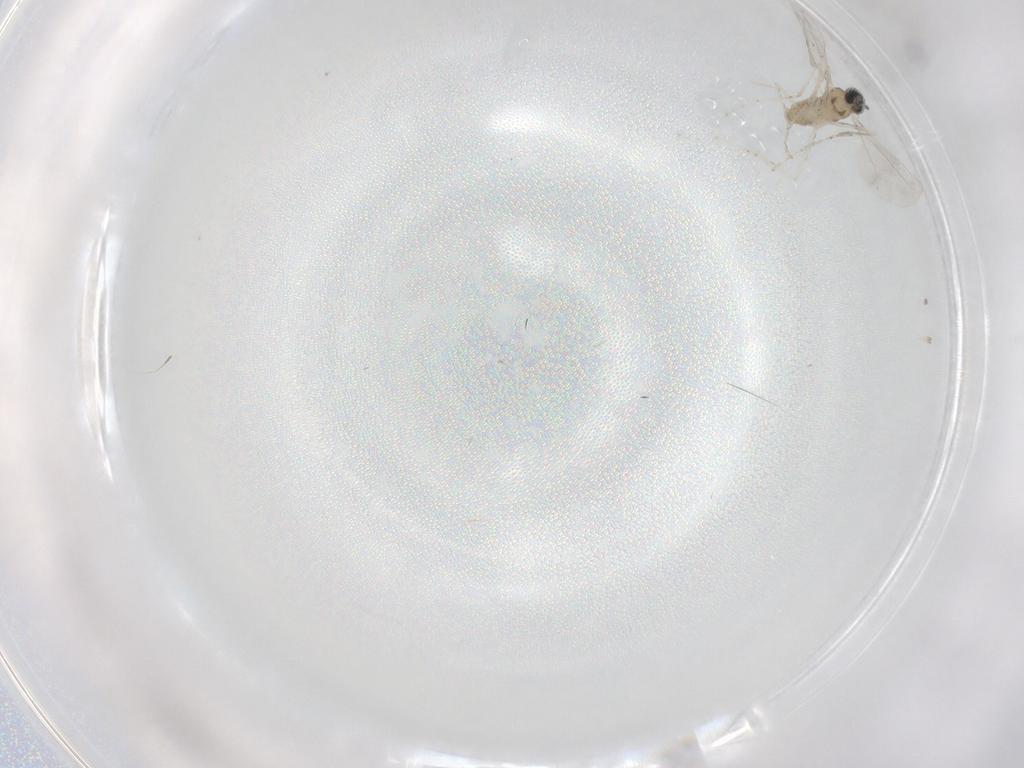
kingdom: Animalia
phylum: Arthropoda
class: Insecta
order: Diptera
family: Cecidomyiidae
